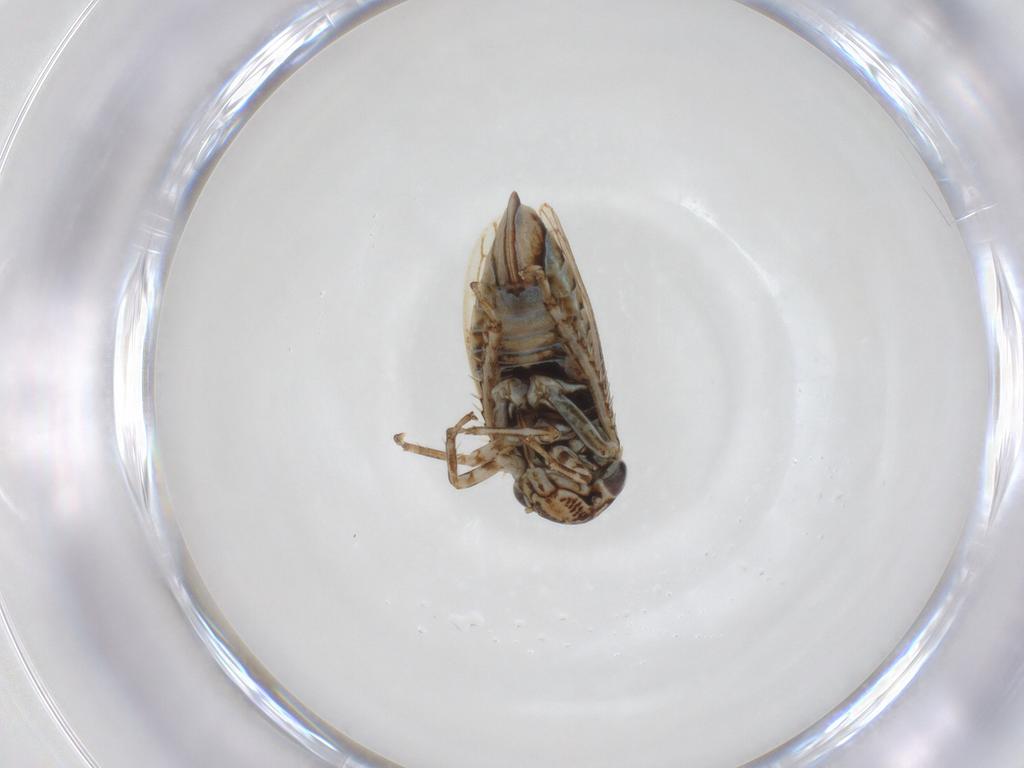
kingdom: Animalia
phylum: Arthropoda
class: Insecta
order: Hemiptera
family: Cicadellidae
